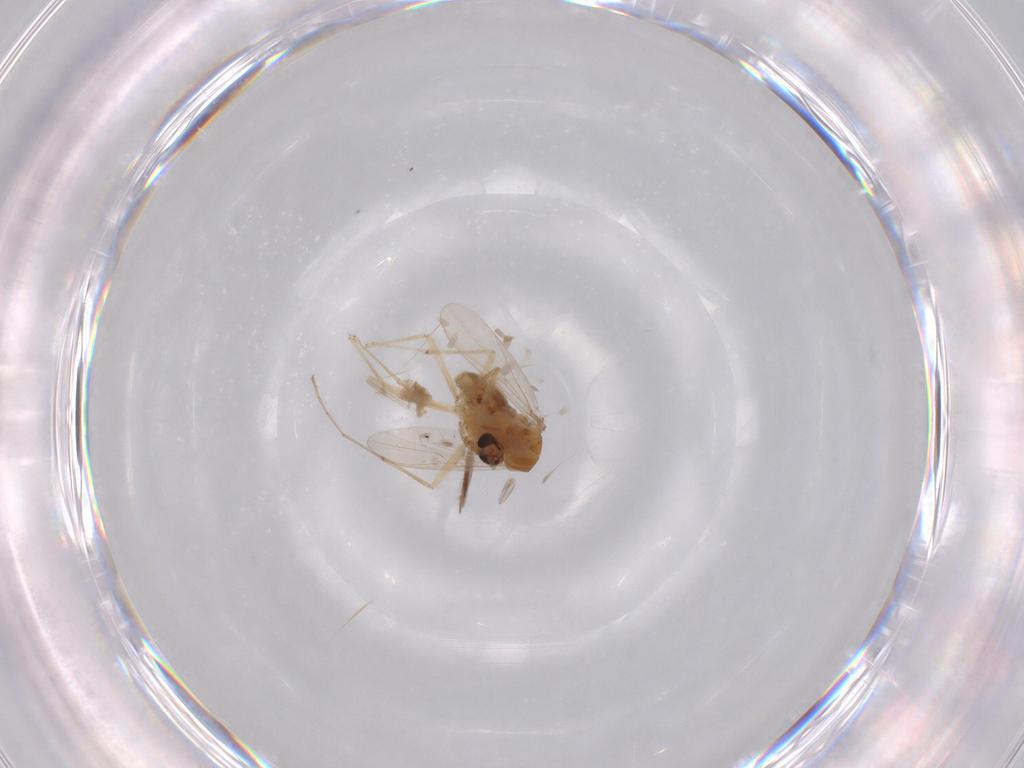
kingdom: Animalia
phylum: Arthropoda
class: Insecta
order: Diptera
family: Chironomidae
